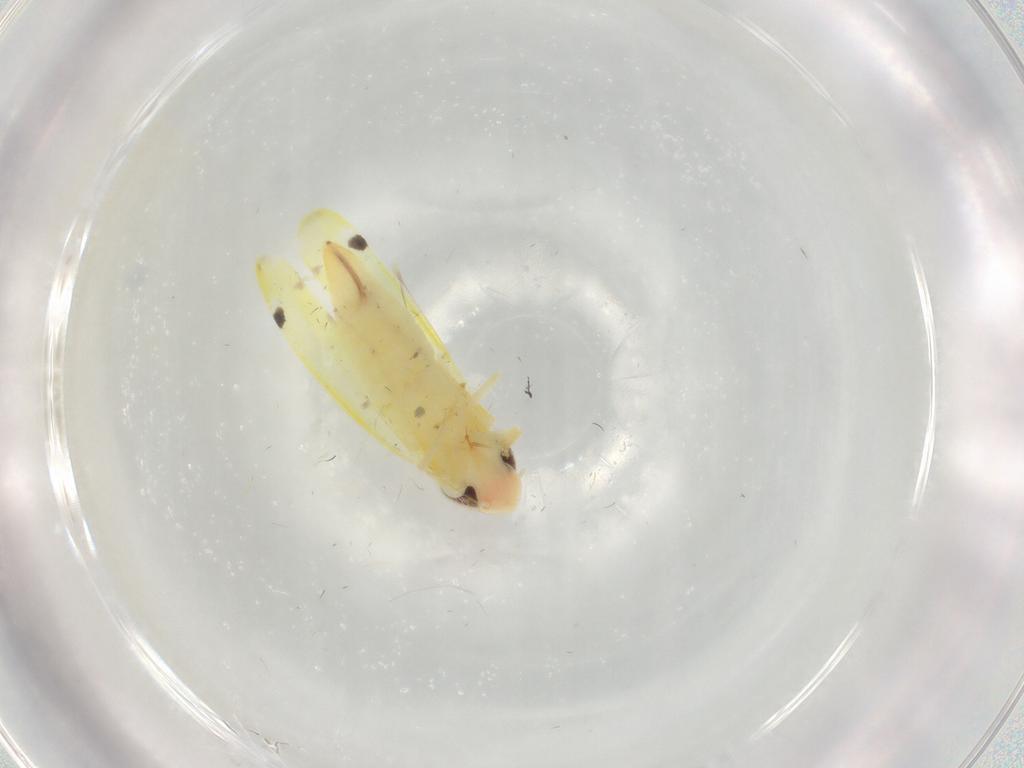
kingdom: Animalia
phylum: Arthropoda
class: Insecta
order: Hemiptera
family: Cicadellidae
